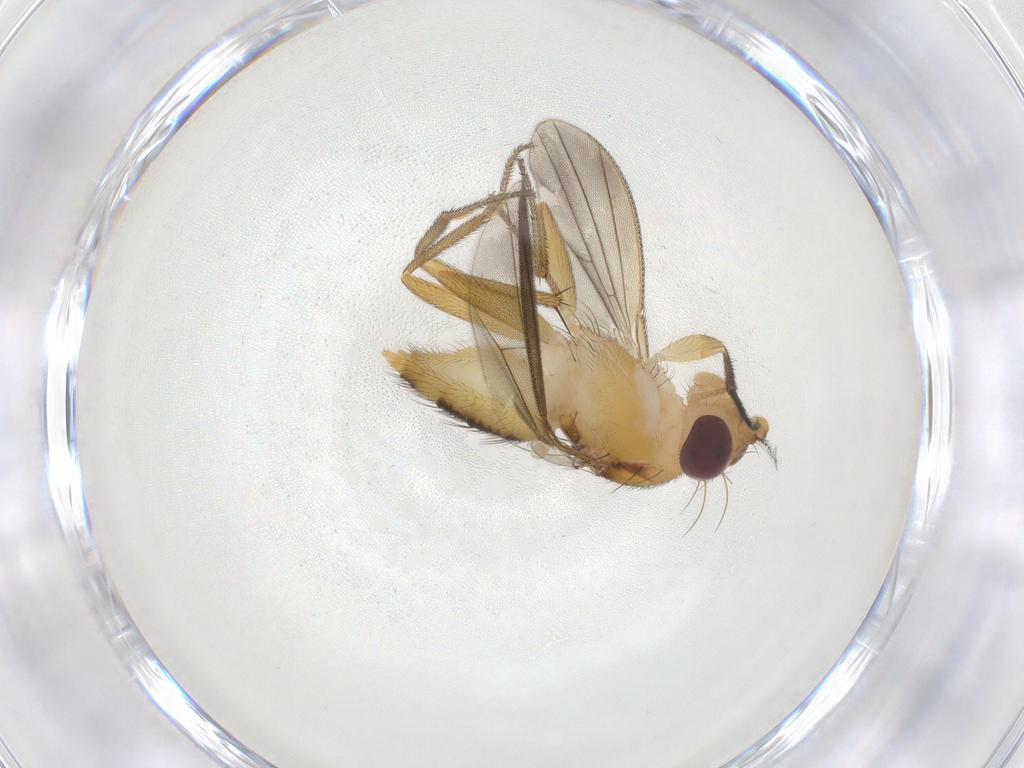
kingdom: Animalia
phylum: Arthropoda
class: Insecta
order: Diptera
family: Clusiidae
